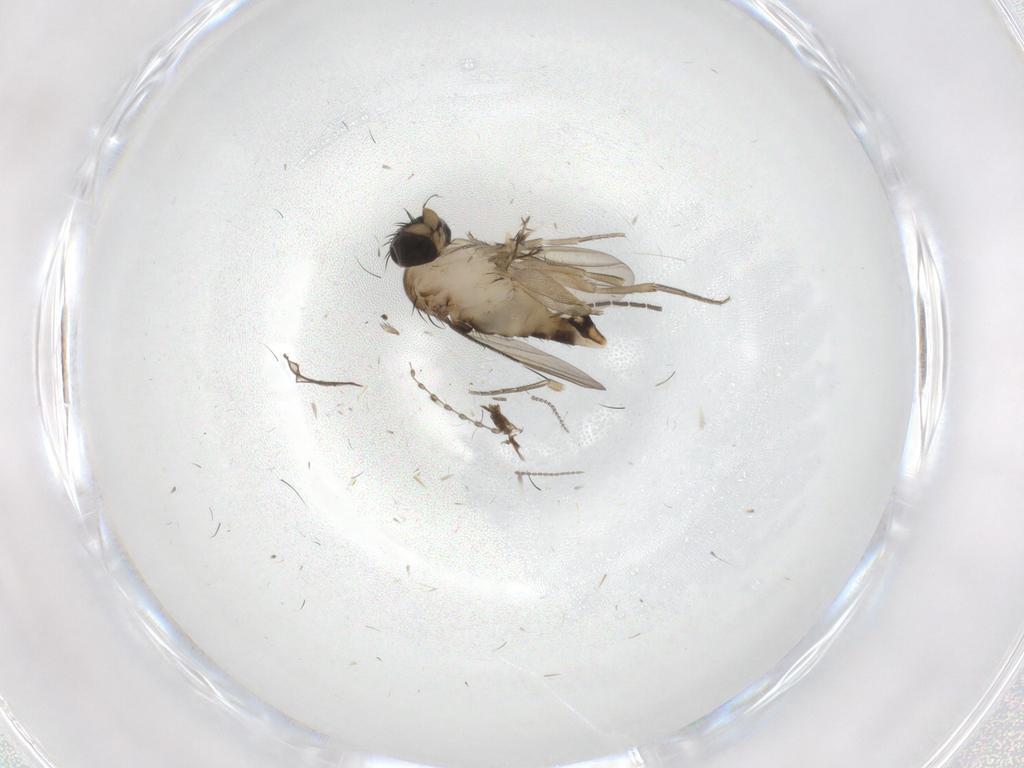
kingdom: Animalia
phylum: Arthropoda
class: Insecta
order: Diptera
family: Phoridae
